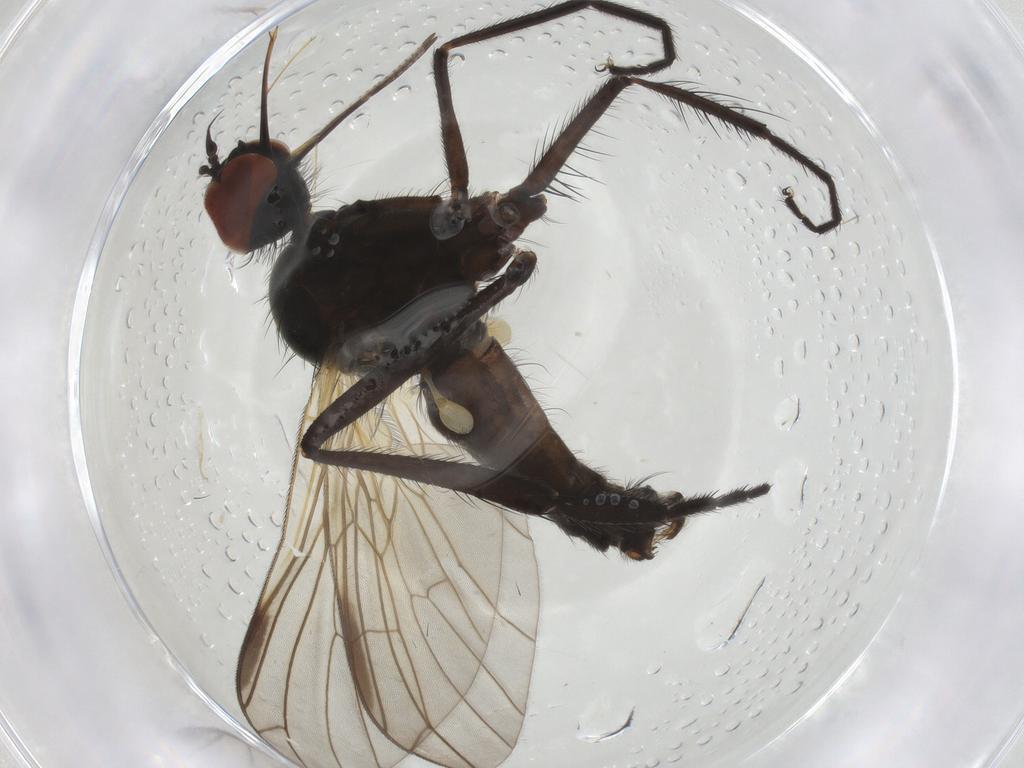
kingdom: Animalia
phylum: Arthropoda
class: Insecta
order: Diptera
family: Empididae
